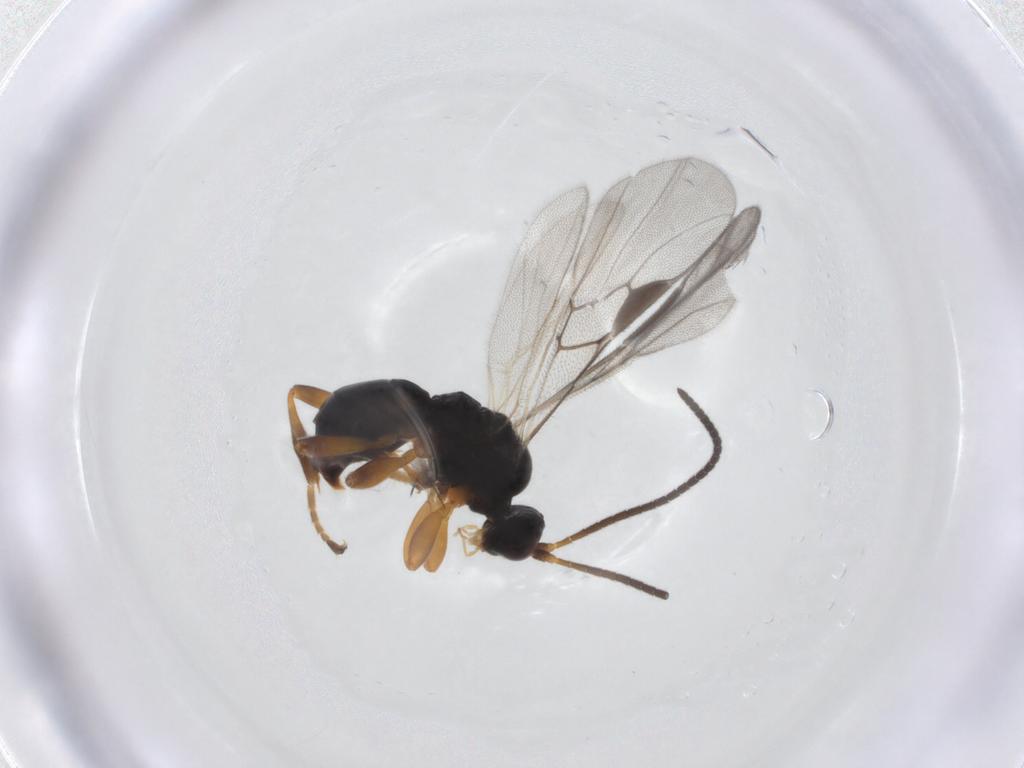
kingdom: Animalia
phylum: Arthropoda
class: Insecta
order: Hymenoptera
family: Braconidae
